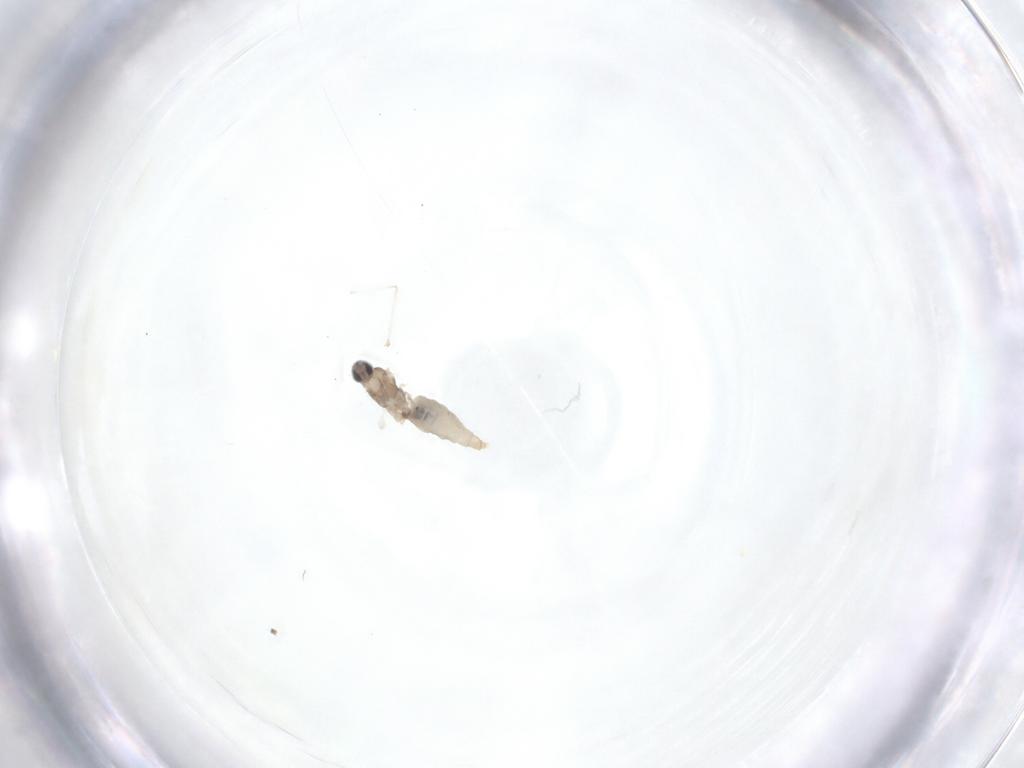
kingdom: Animalia
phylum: Arthropoda
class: Insecta
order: Diptera
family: Cecidomyiidae
